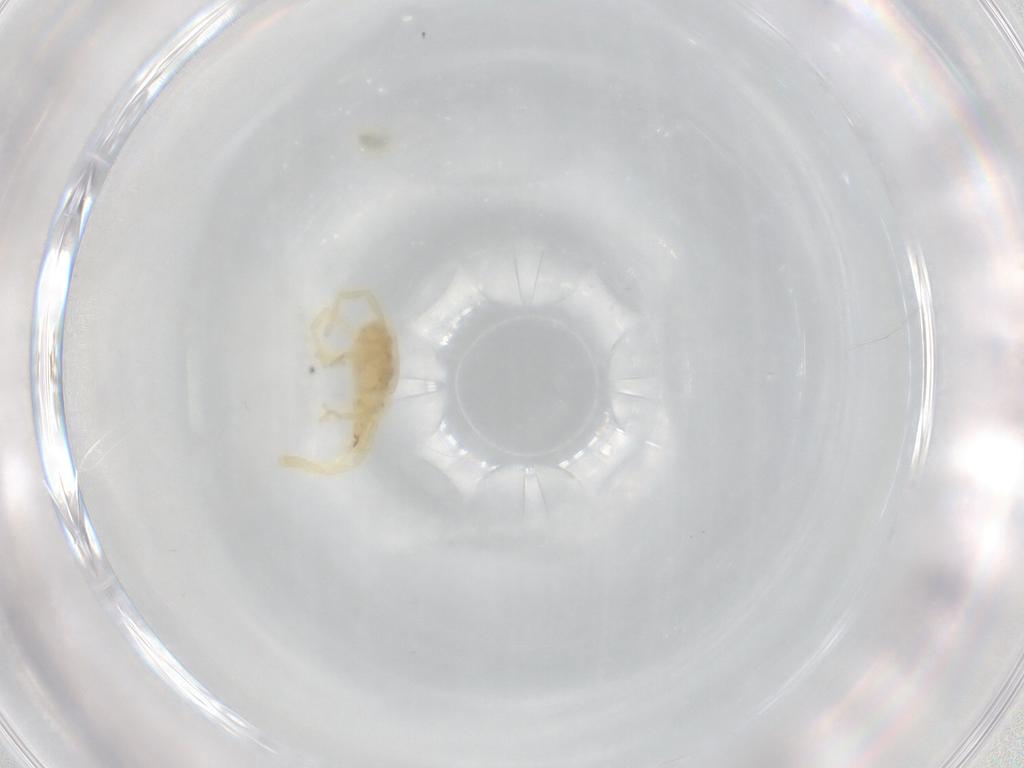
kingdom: Animalia
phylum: Arthropoda
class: Arachnida
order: Trombidiformes
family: Erythraeidae
